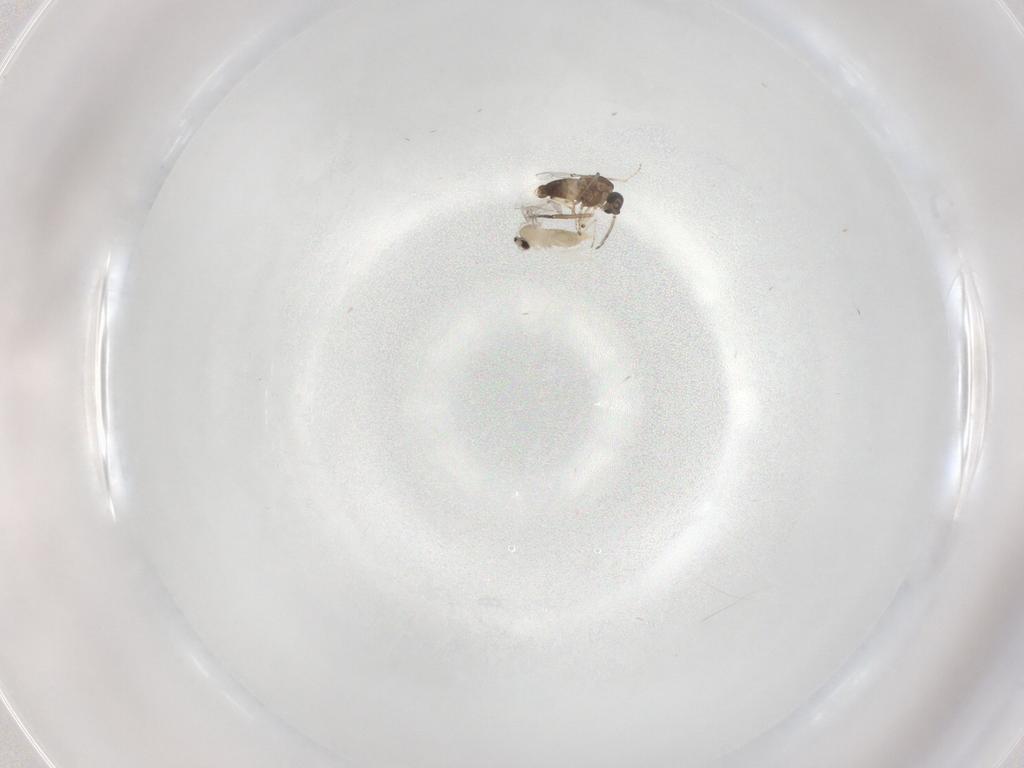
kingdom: Animalia
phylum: Arthropoda
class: Insecta
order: Diptera
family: Ceratopogonidae
